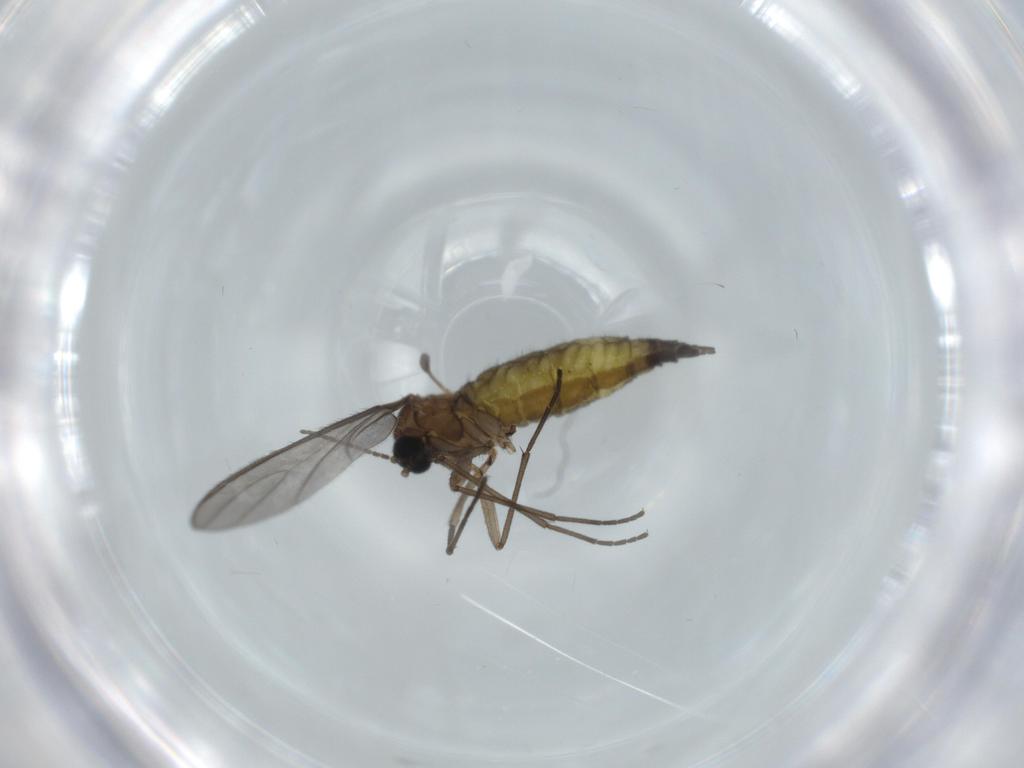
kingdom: Animalia
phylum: Arthropoda
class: Insecta
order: Diptera
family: Sciaridae
